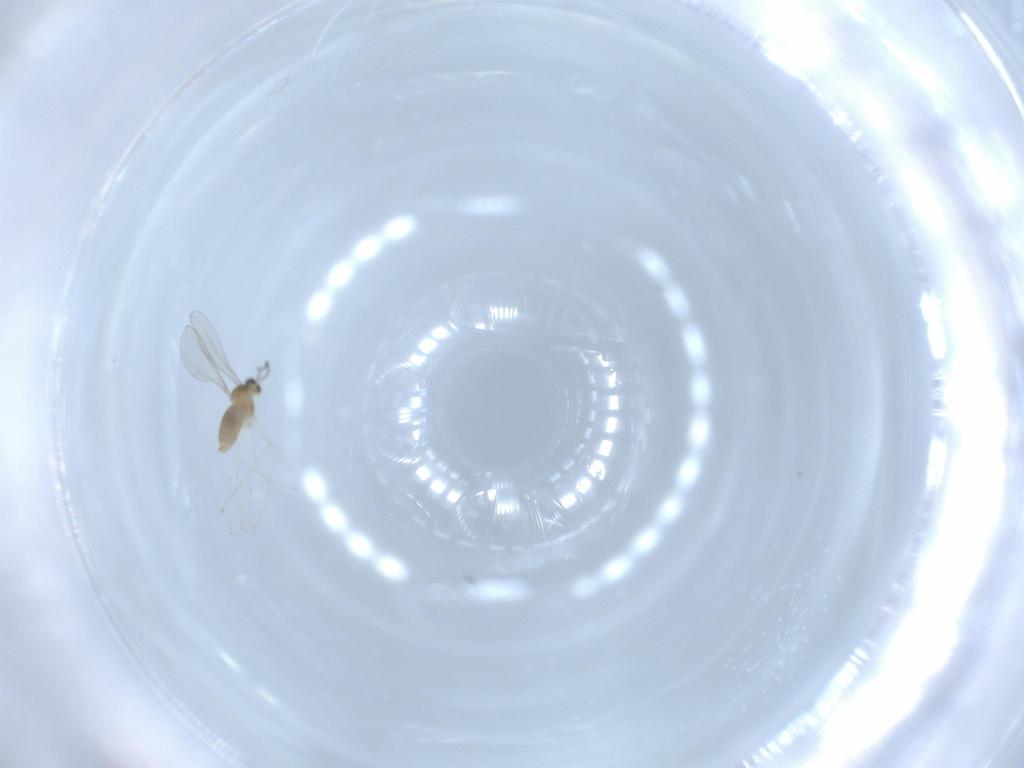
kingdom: Animalia
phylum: Arthropoda
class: Insecta
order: Diptera
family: Cecidomyiidae
